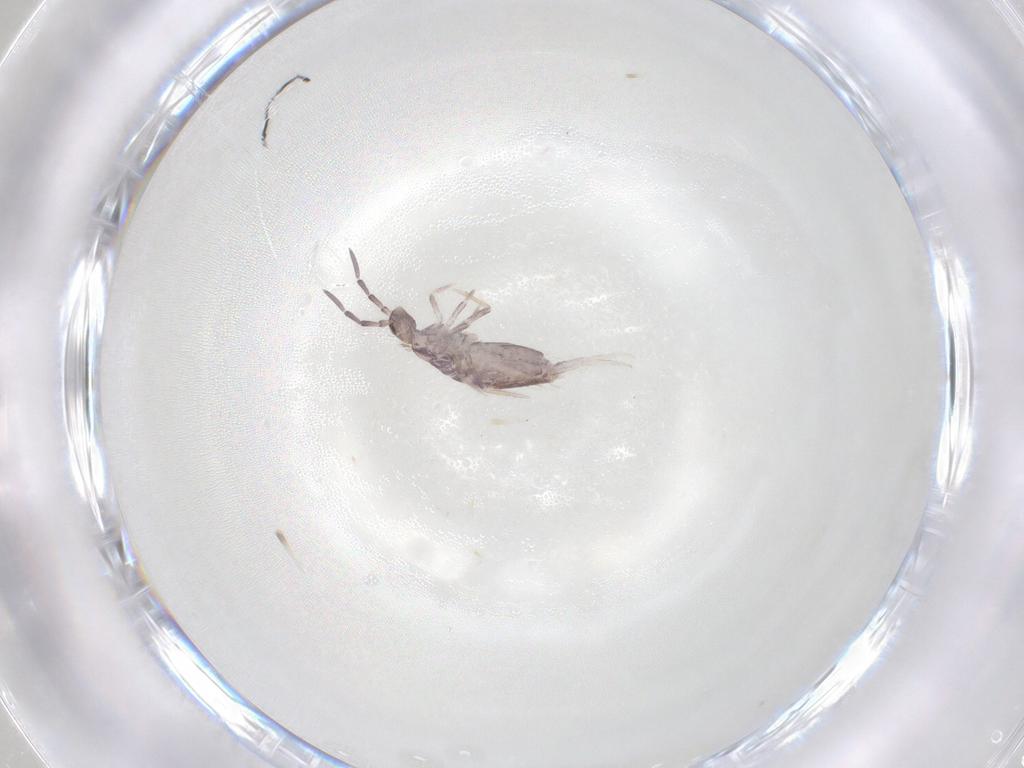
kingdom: Animalia
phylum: Arthropoda
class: Collembola
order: Poduromorpha
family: Hypogastruridae
